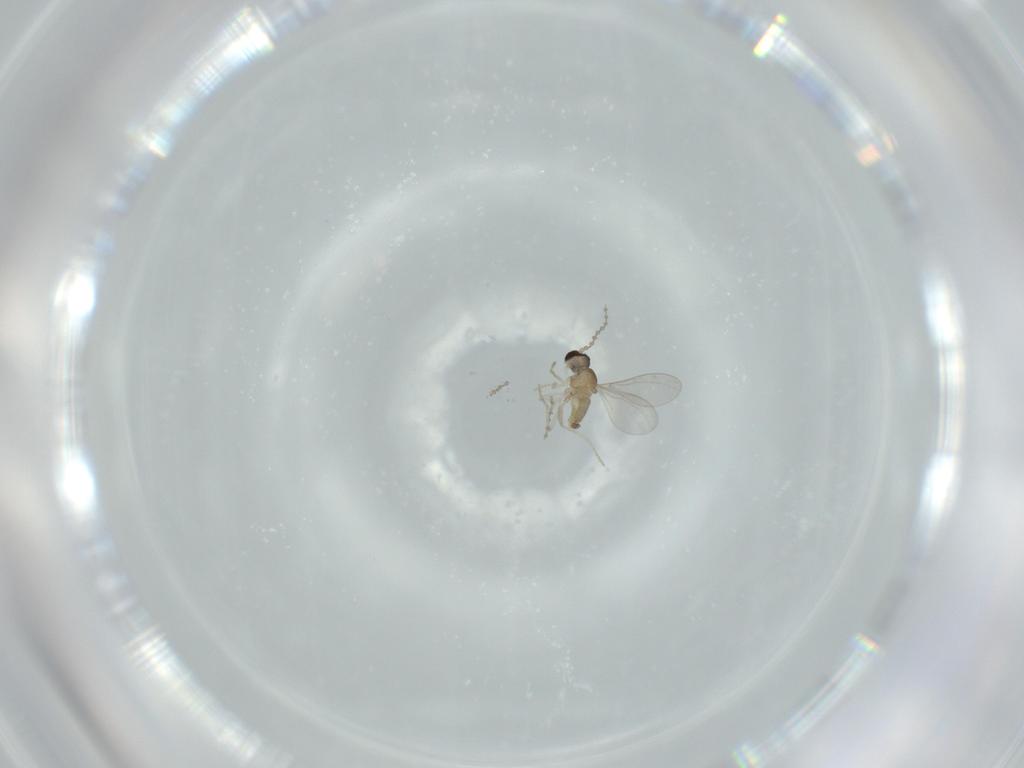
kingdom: Animalia
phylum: Arthropoda
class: Insecta
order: Diptera
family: Cecidomyiidae
